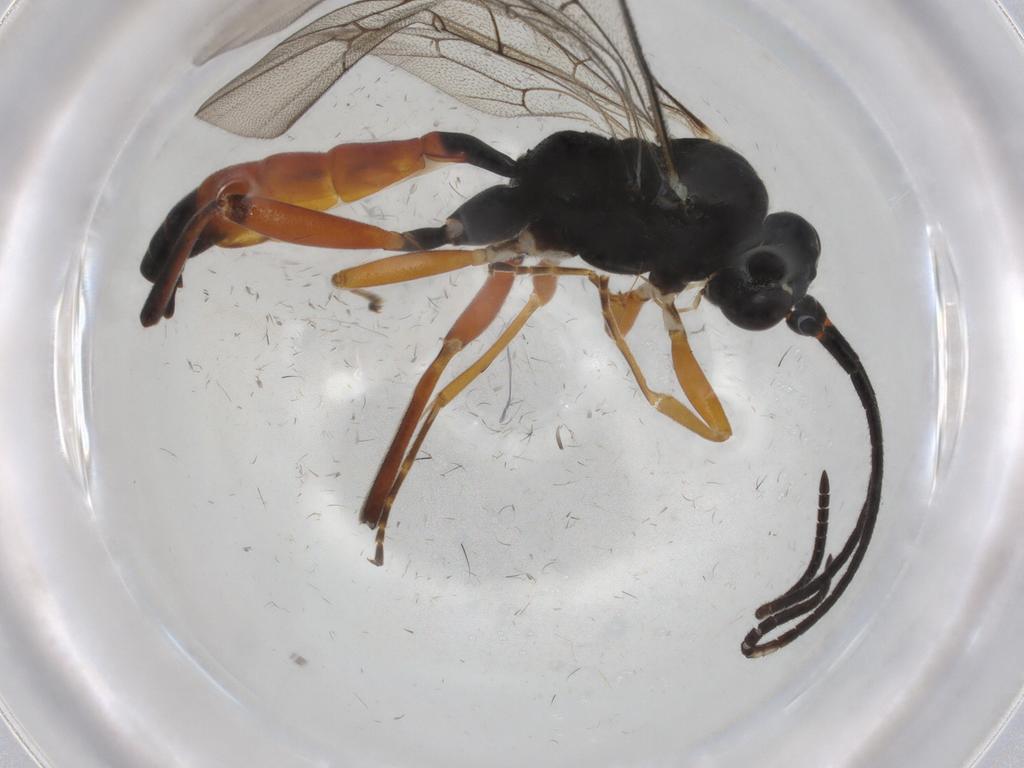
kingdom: Animalia
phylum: Arthropoda
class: Insecta
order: Hymenoptera
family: Ichneumonidae
